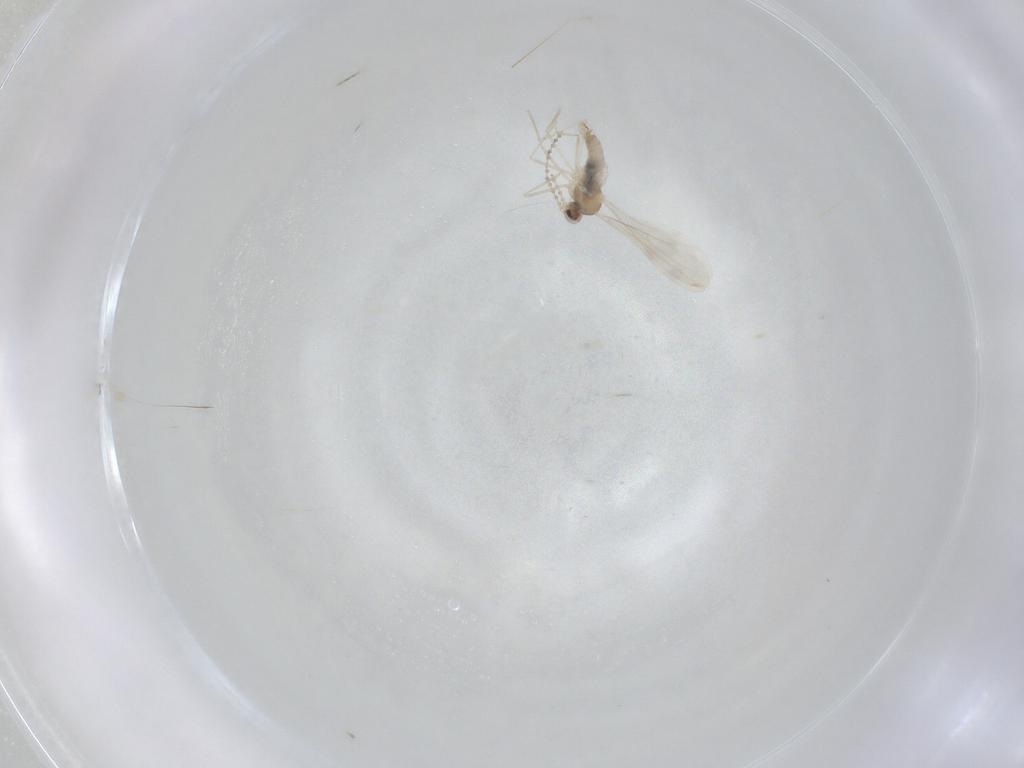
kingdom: Animalia
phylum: Arthropoda
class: Insecta
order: Diptera
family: Cecidomyiidae
